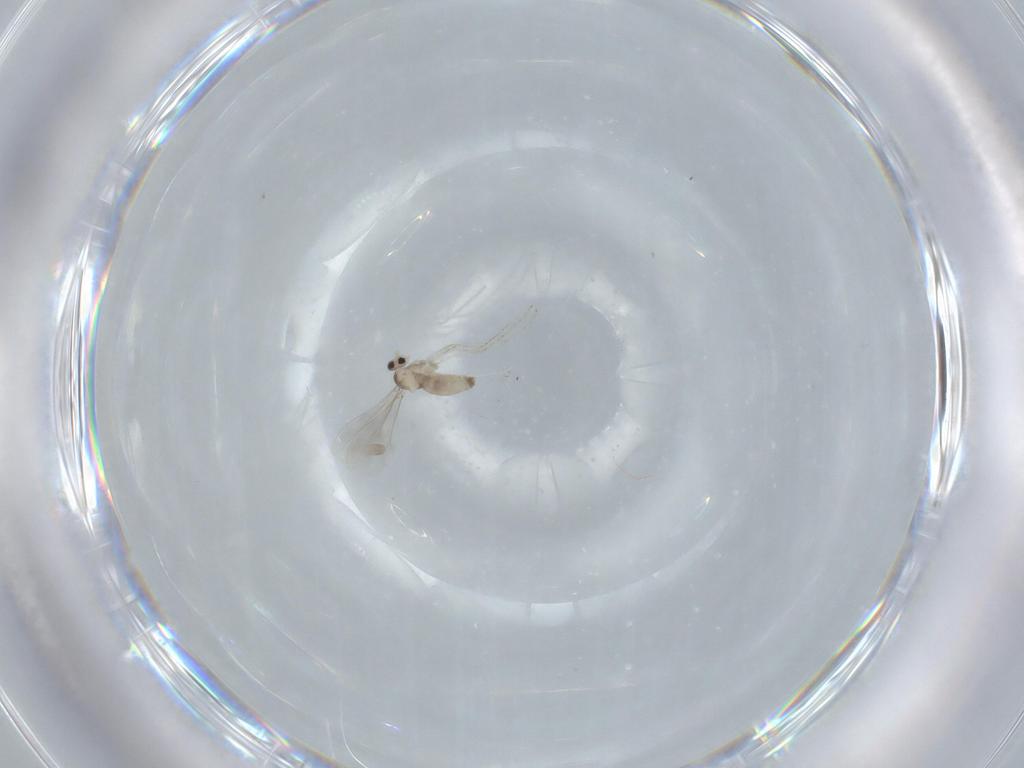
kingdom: Animalia
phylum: Arthropoda
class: Insecta
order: Diptera
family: Cecidomyiidae
